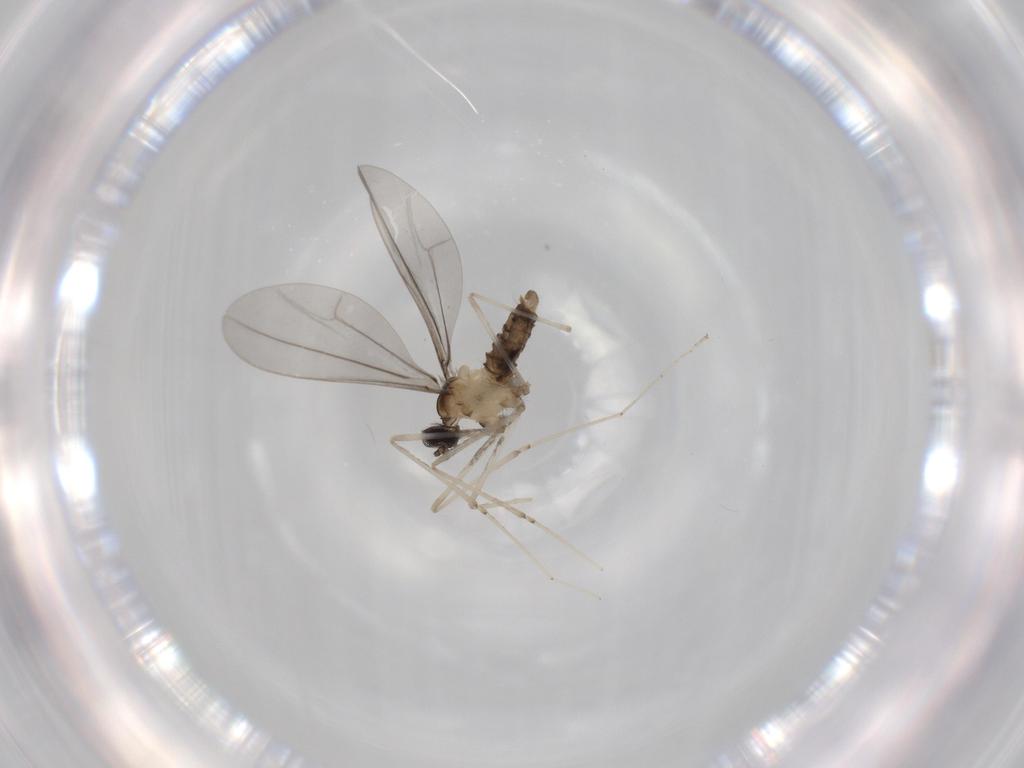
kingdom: Animalia
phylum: Arthropoda
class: Insecta
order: Diptera
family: Cecidomyiidae
